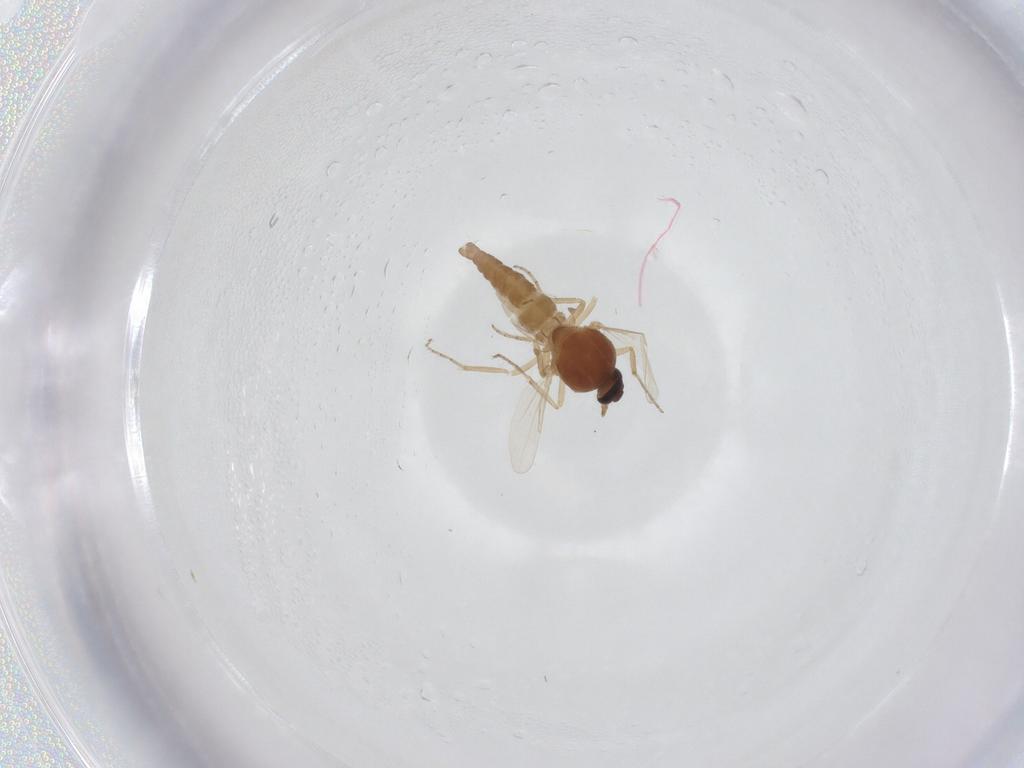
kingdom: Animalia
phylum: Arthropoda
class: Insecta
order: Diptera
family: Ceratopogonidae
